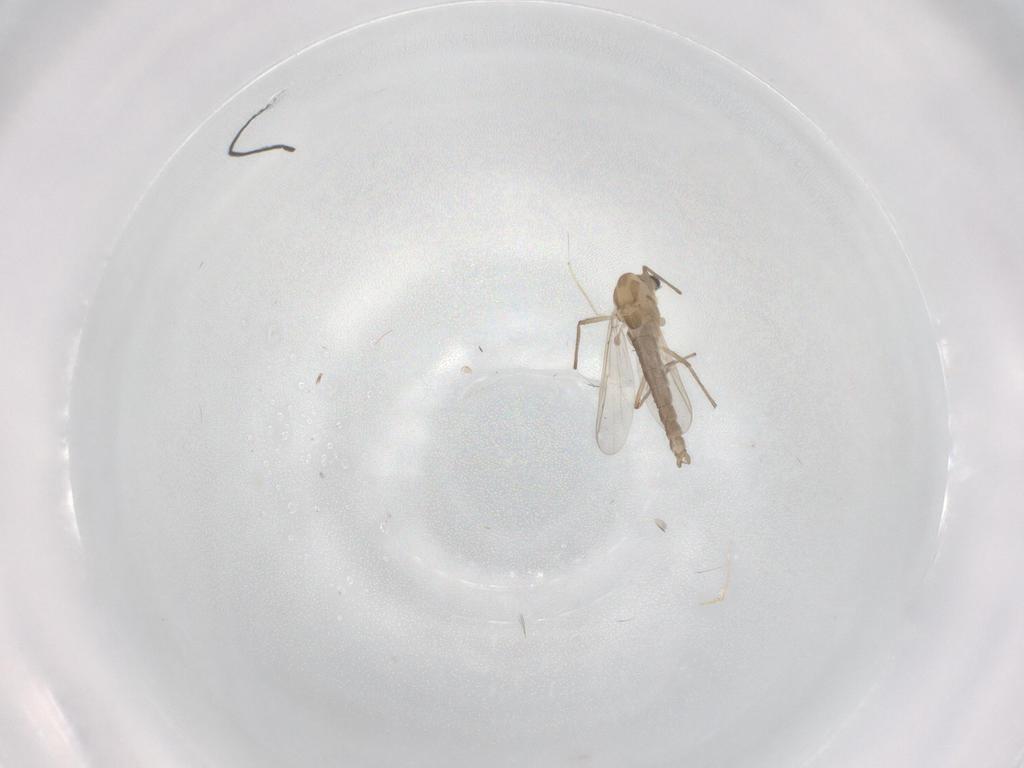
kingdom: Animalia
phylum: Arthropoda
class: Insecta
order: Diptera
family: Chironomidae
